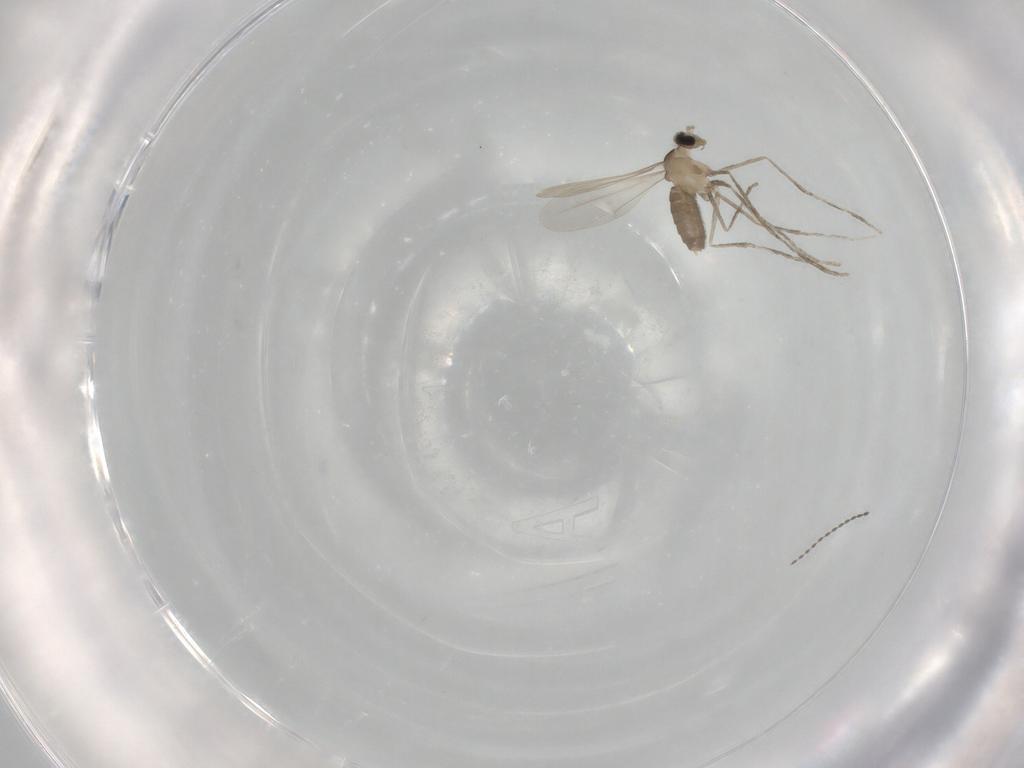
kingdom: Animalia
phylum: Arthropoda
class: Insecta
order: Diptera
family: Cecidomyiidae
